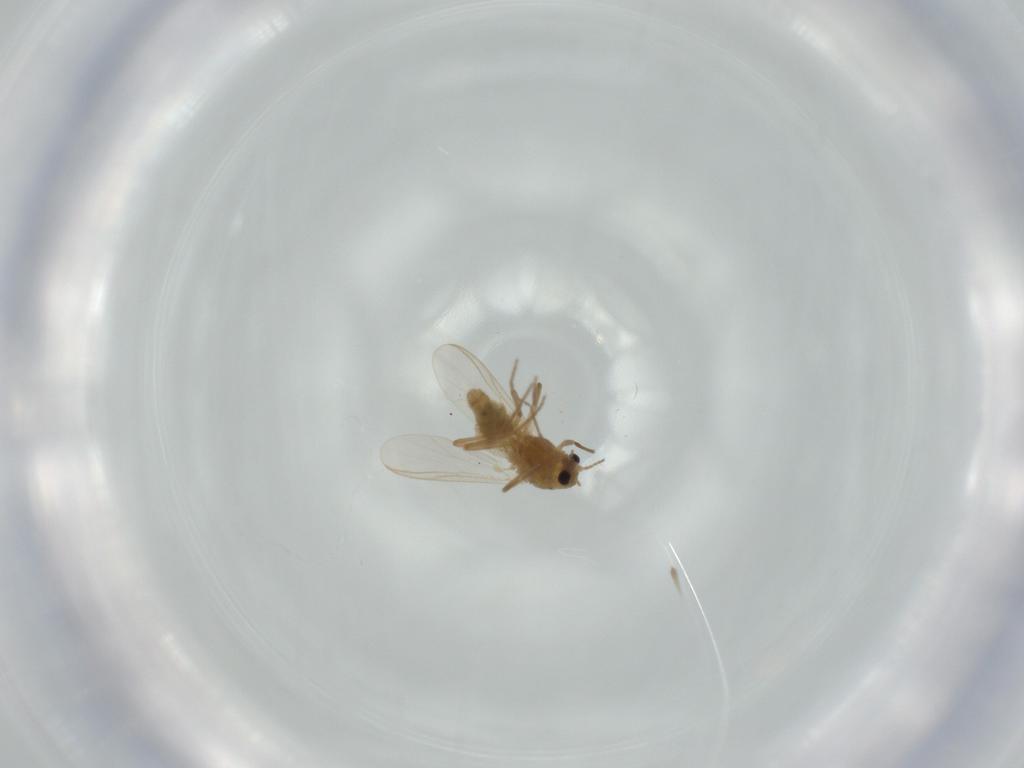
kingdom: Animalia
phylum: Arthropoda
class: Insecta
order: Diptera
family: Chironomidae
